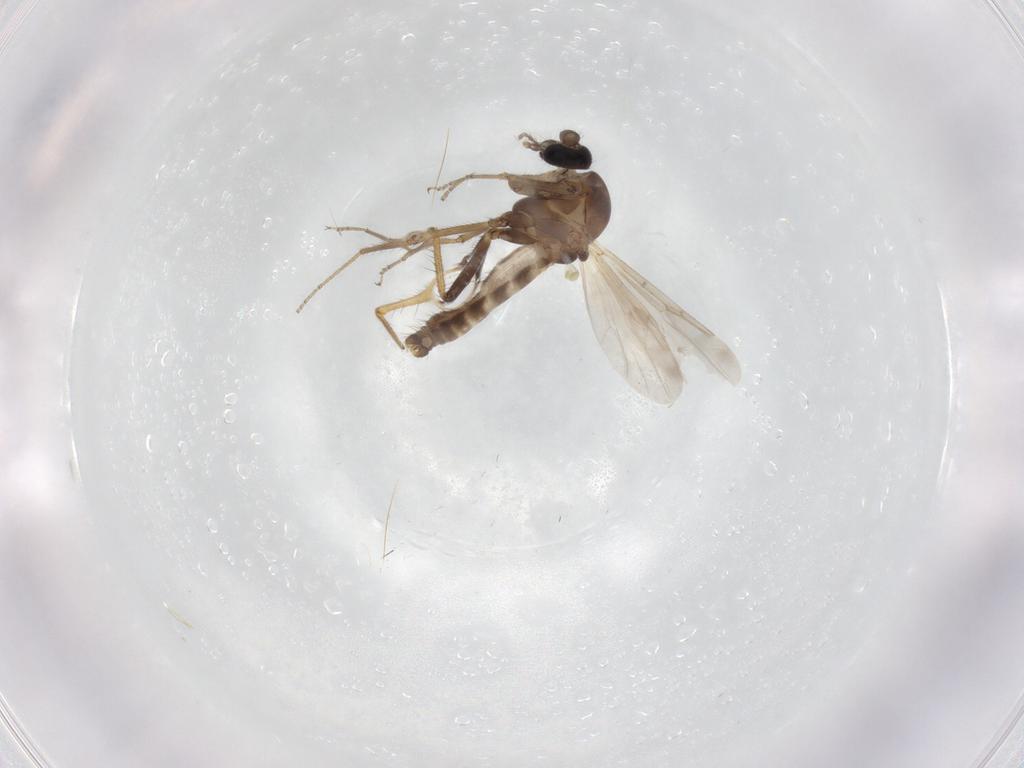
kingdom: Animalia
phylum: Arthropoda
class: Insecta
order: Diptera
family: Ceratopogonidae
